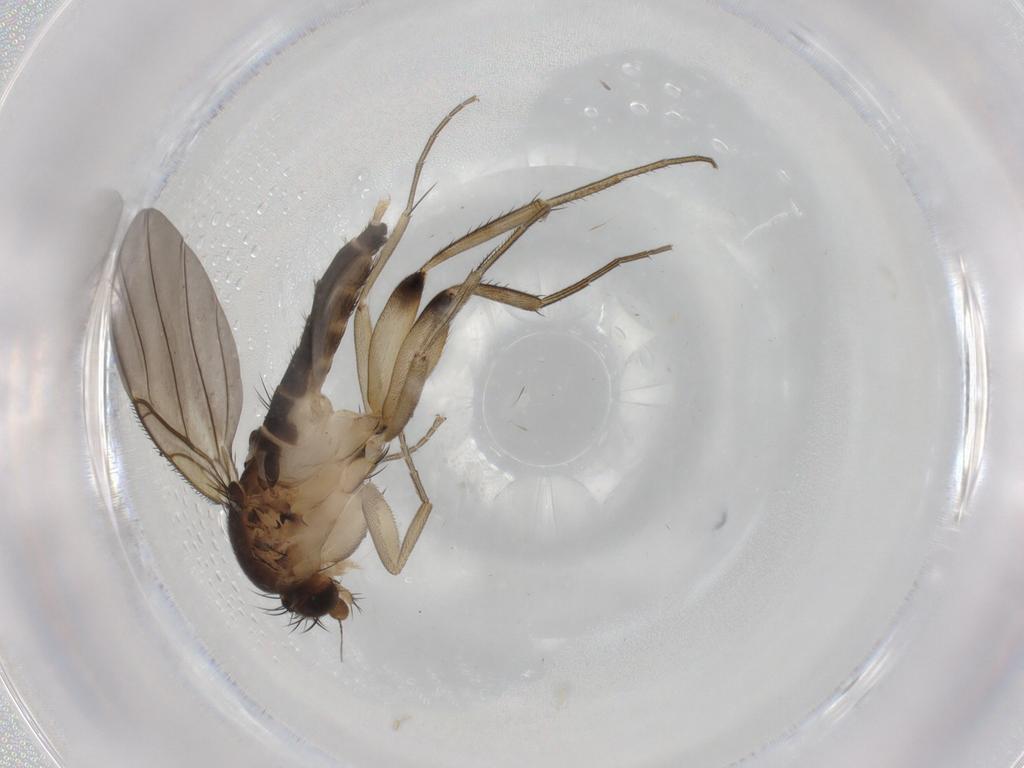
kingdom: Animalia
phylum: Arthropoda
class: Insecta
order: Diptera
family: Phoridae
